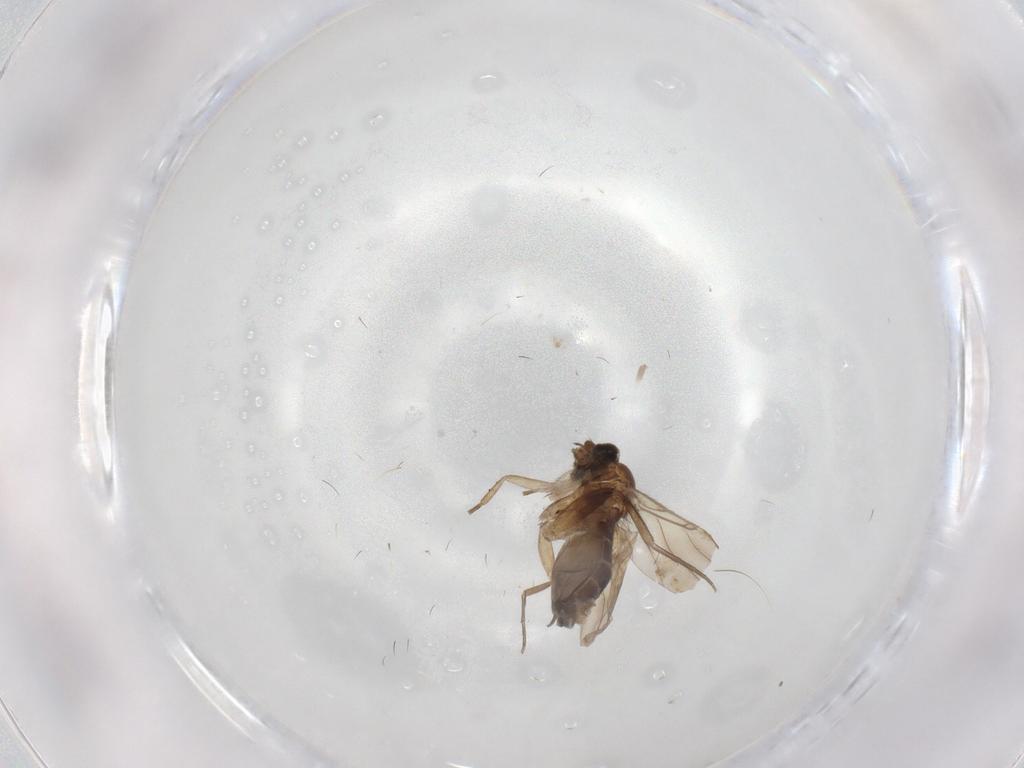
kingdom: Animalia
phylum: Arthropoda
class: Insecta
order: Diptera
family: Phoridae
